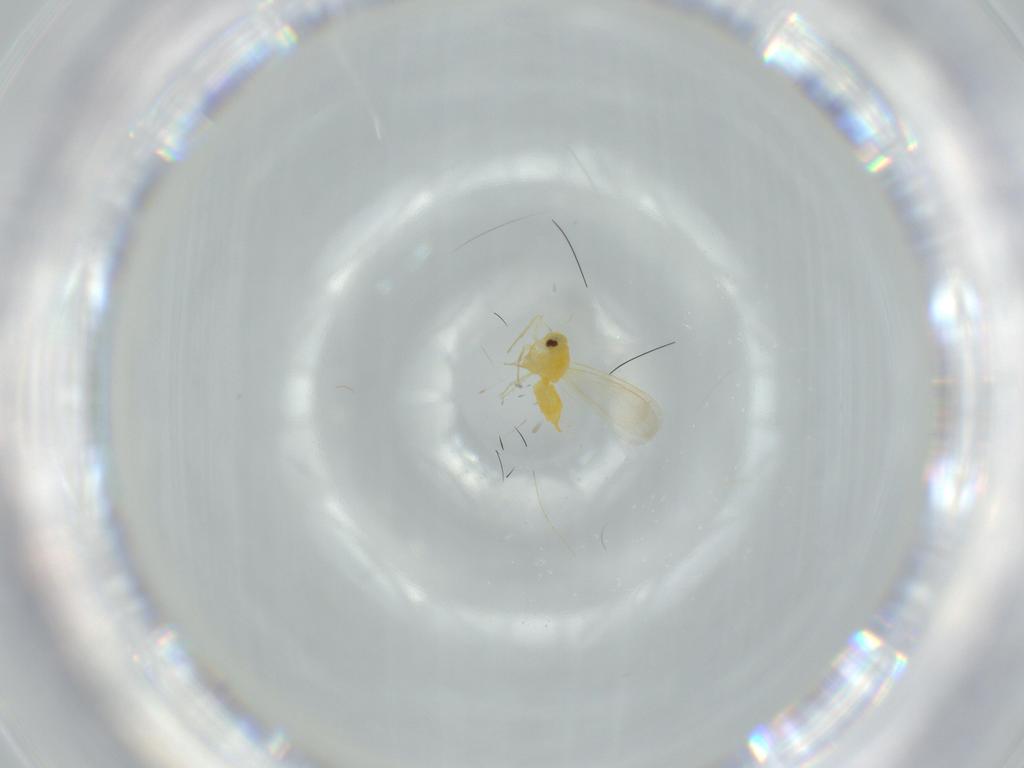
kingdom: Animalia
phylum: Arthropoda
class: Insecta
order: Hemiptera
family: Aleyrodidae
